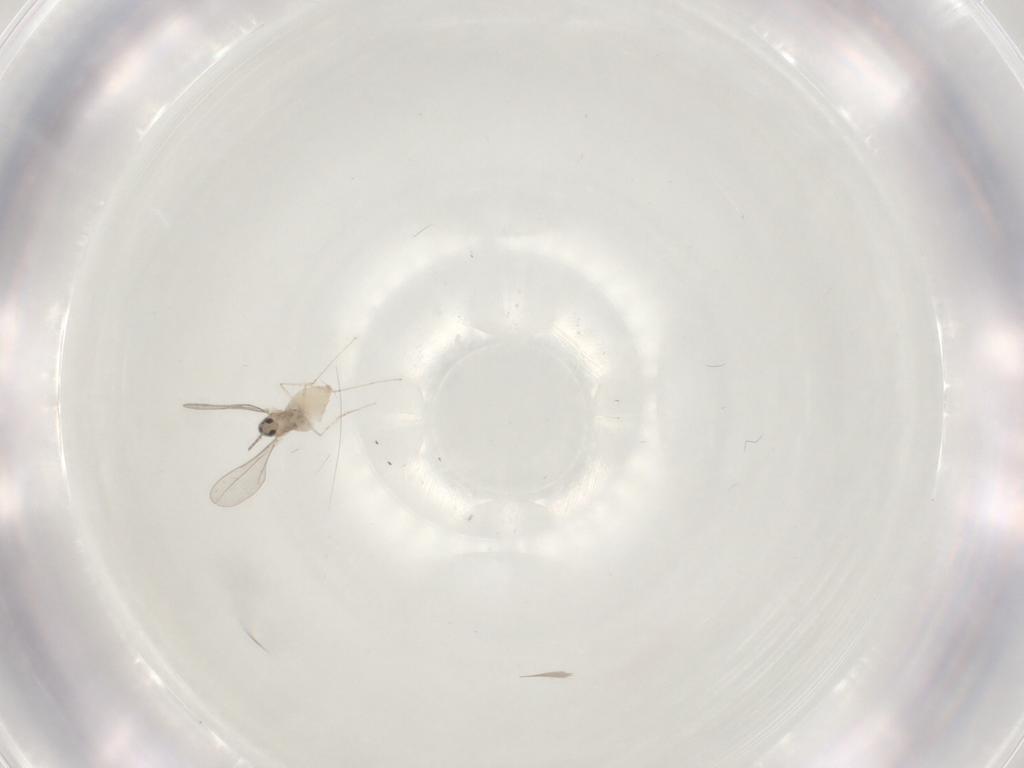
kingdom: Animalia
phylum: Arthropoda
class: Insecta
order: Diptera
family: Cecidomyiidae
